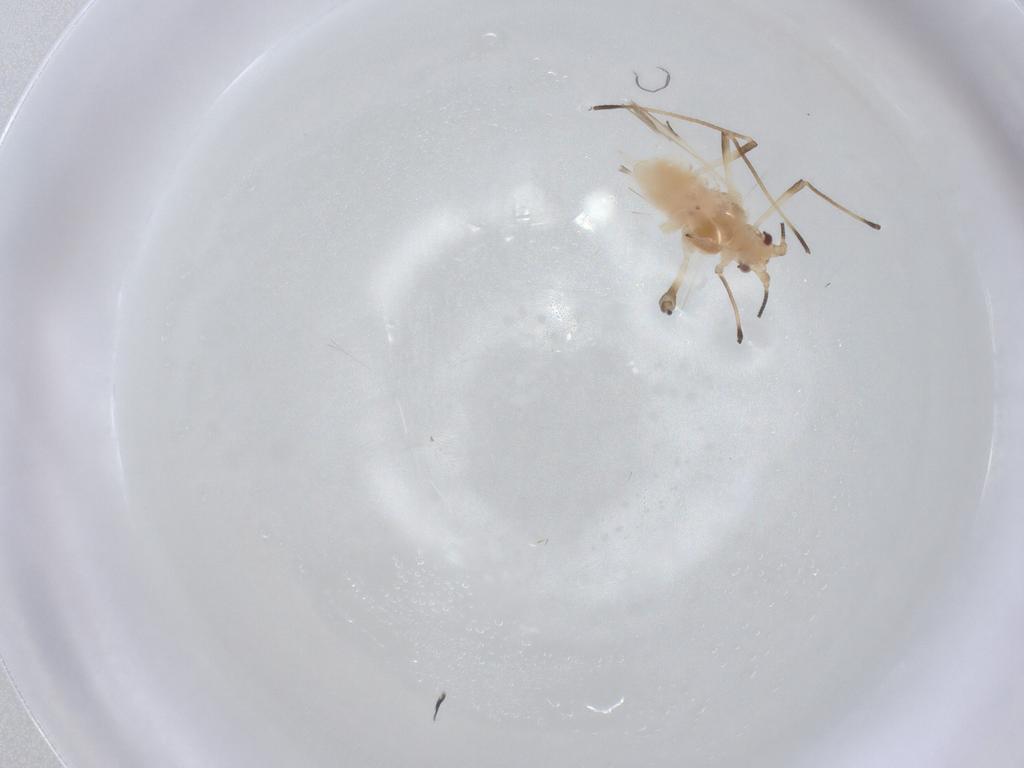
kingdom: Animalia
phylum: Arthropoda
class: Insecta
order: Hemiptera
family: Aphididae
